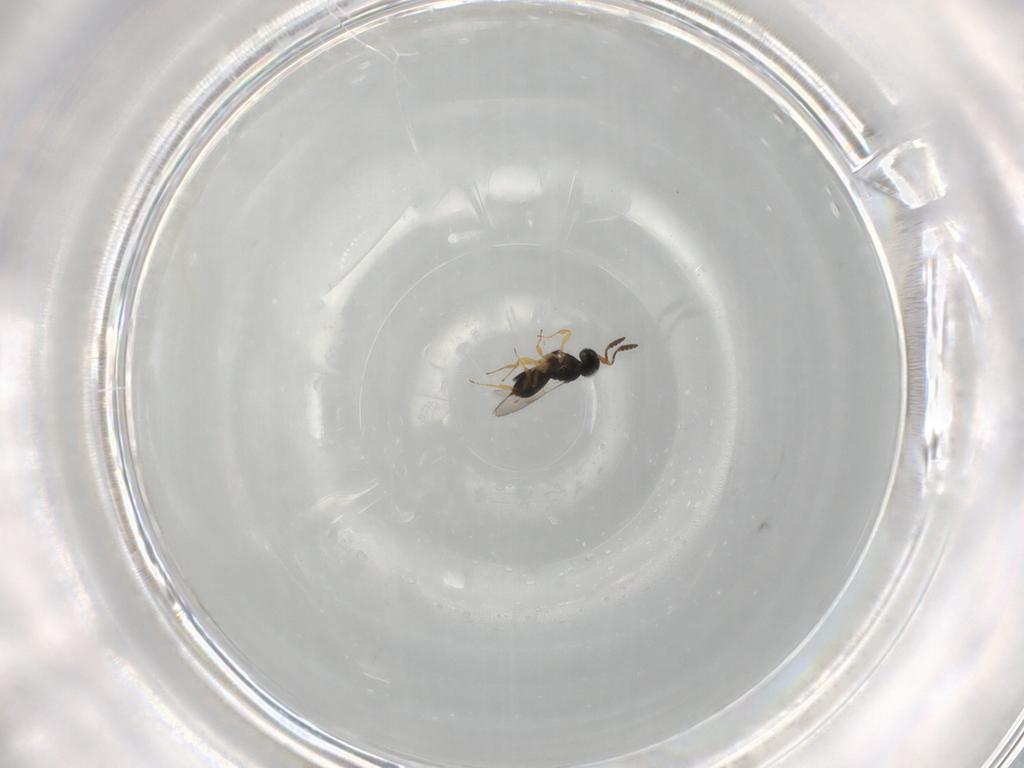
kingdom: Animalia
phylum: Arthropoda
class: Insecta
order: Hymenoptera
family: Scelionidae
